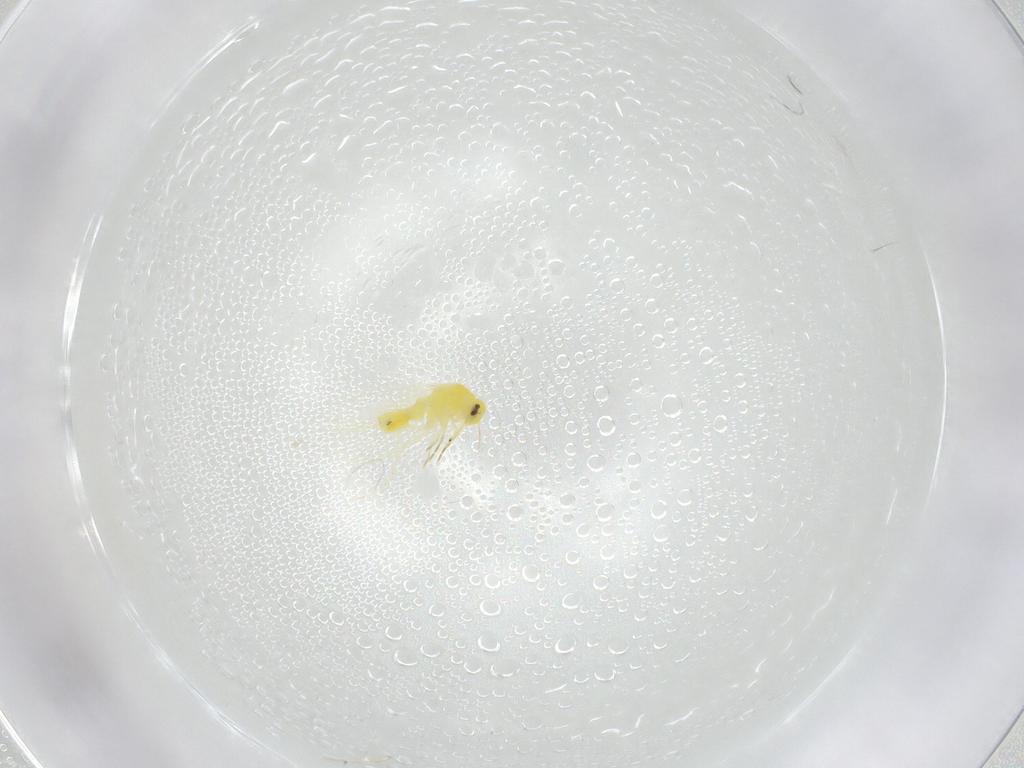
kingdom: Animalia
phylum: Arthropoda
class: Insecta
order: Hemiptera
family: Aleyrodidae
